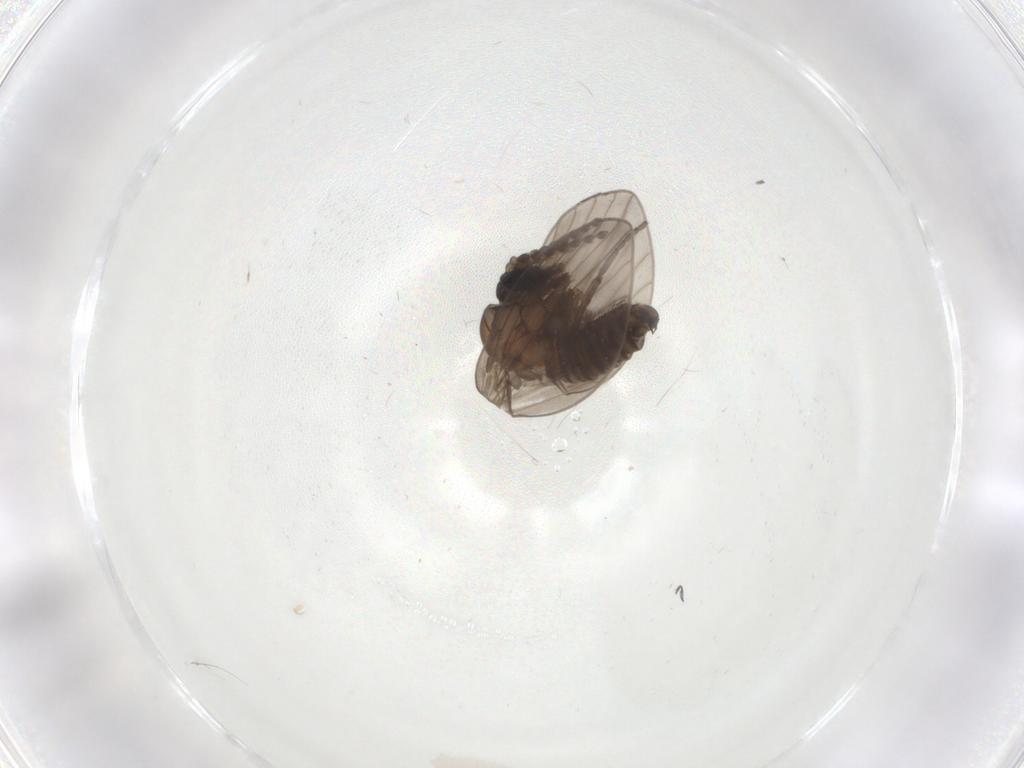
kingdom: Animalia
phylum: Arthropoda
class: Insecta
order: Diptera
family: Psychodidae
